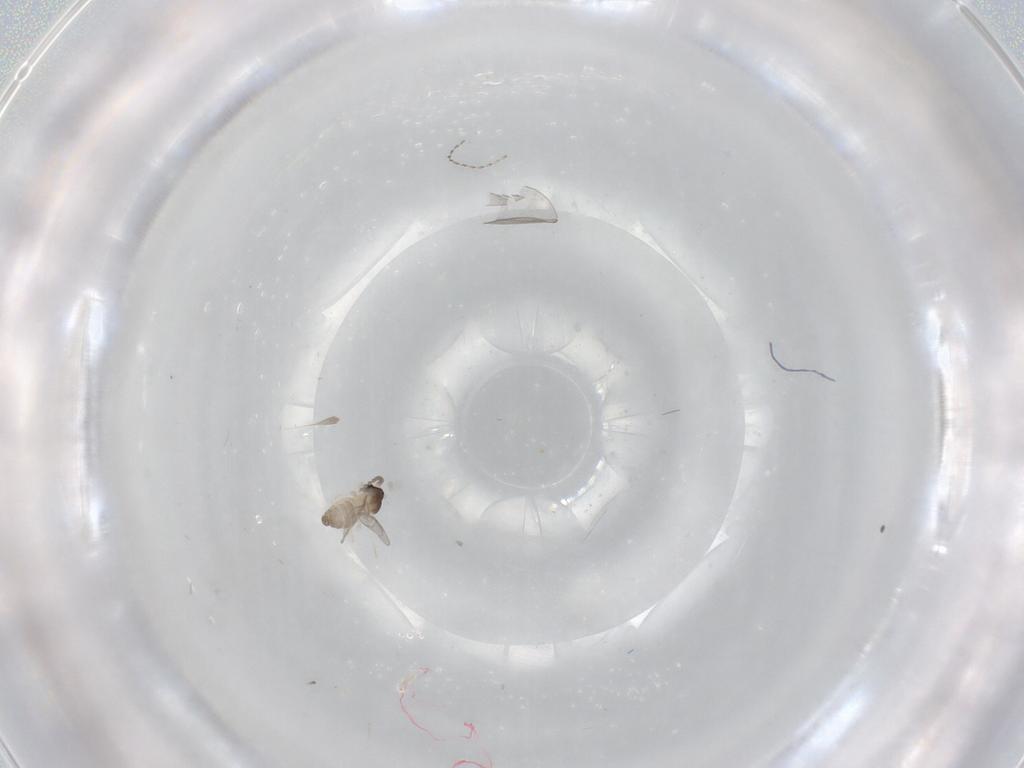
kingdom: Animalia
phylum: Arthropoda
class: Insecta
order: Diptera
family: Cecidomyiidae
